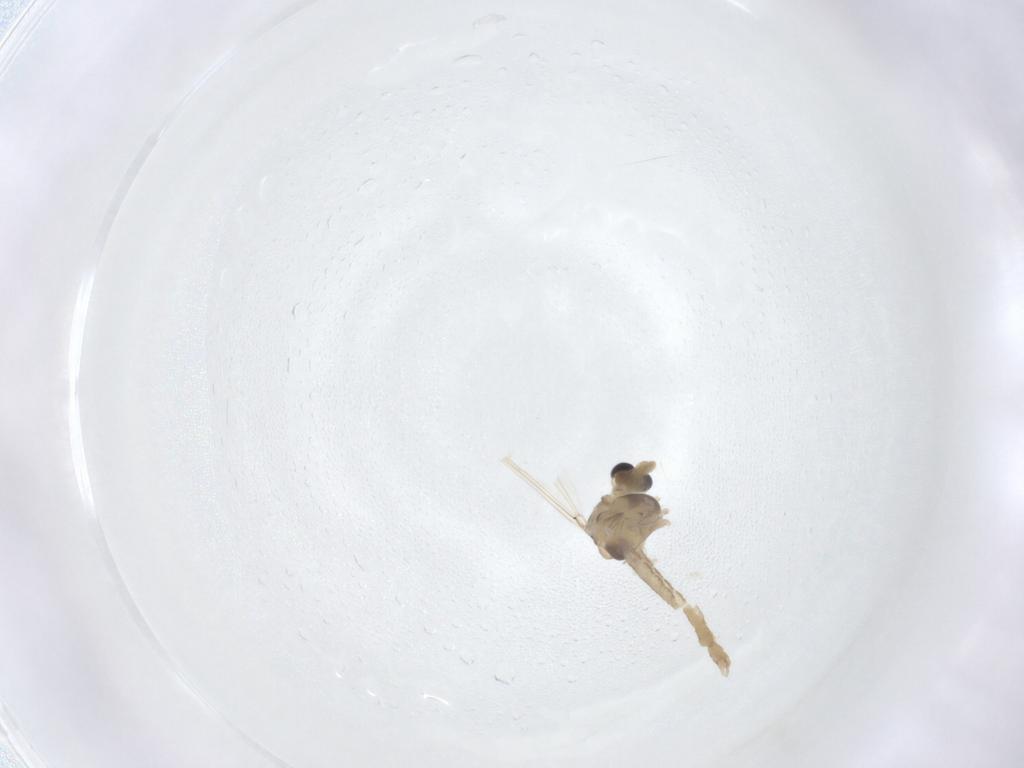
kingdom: Animalia
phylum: Arthropoda
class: Insecta
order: Diptera
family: Chironomidae
